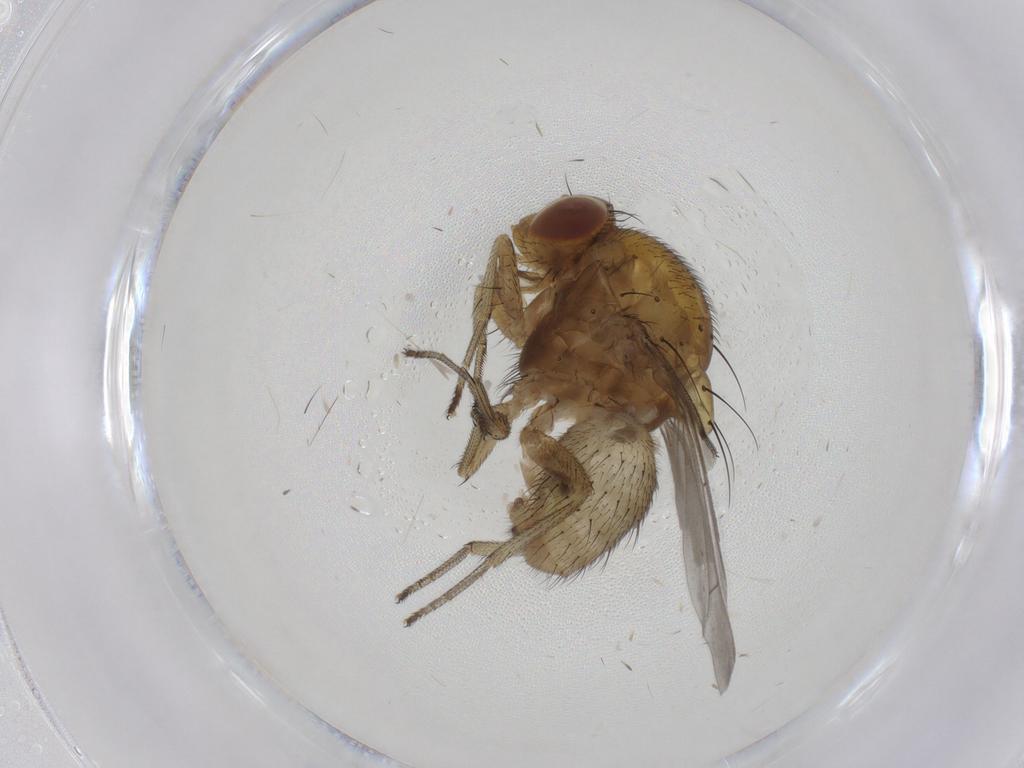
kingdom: Animalia
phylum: Arthropoda
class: Insecta
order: Diptera
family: Lauxaniidae
